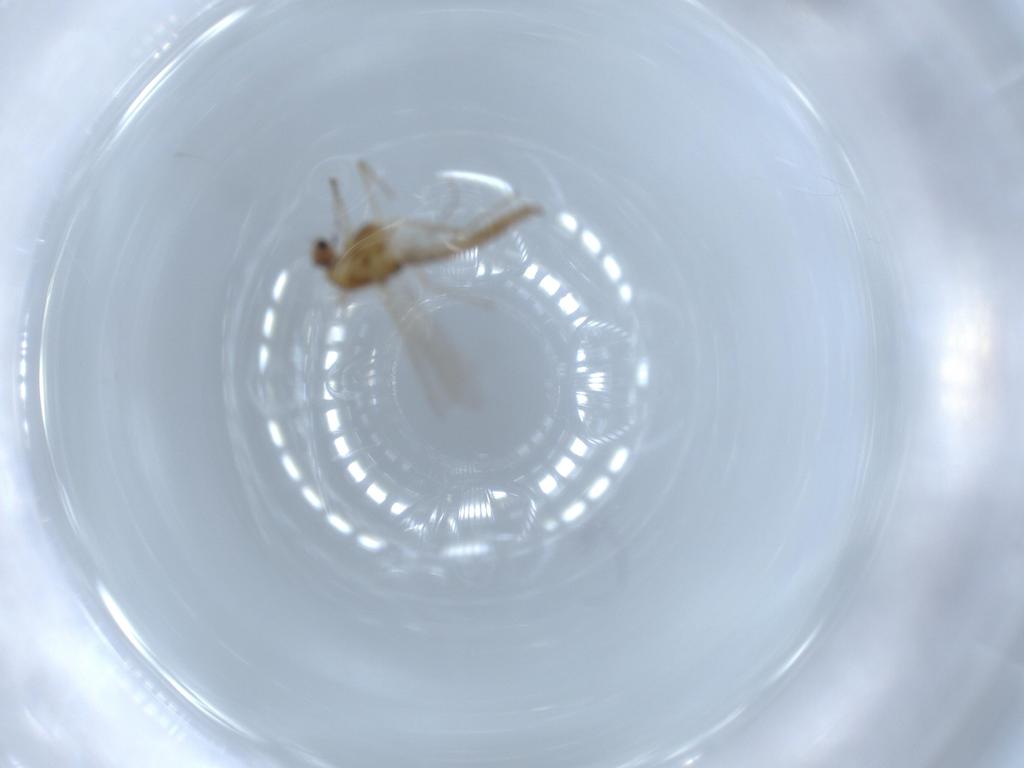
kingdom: Animalia
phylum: Arthropoda
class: Insecta
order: Diptera
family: Chironomidae
